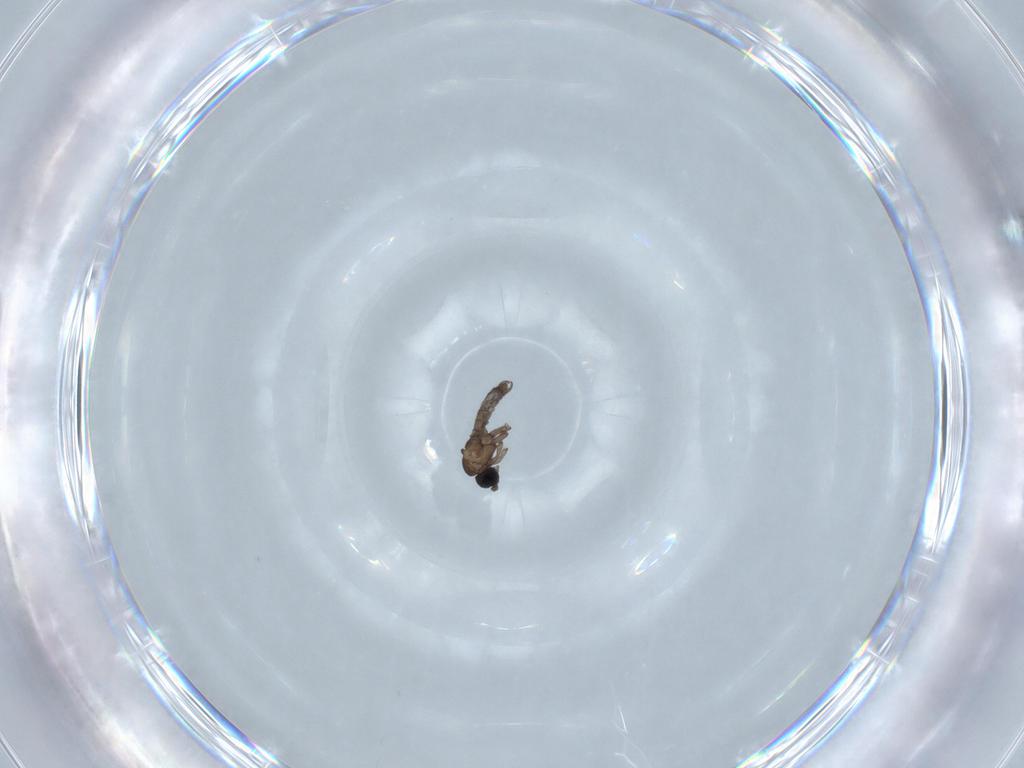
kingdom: Animalia
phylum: Arthropoda
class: Insecta
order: Diptera
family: Sciaridae
